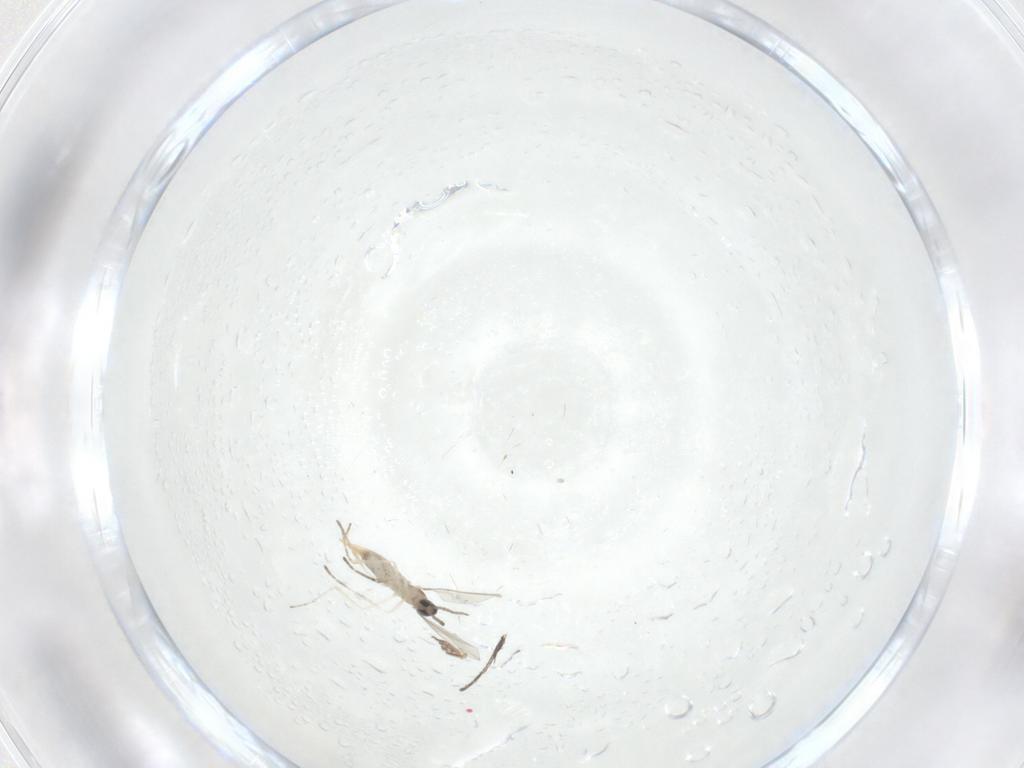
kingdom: Animalia
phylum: Arthropoda
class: Insecta
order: Diptera
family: Cecidomyiidae
